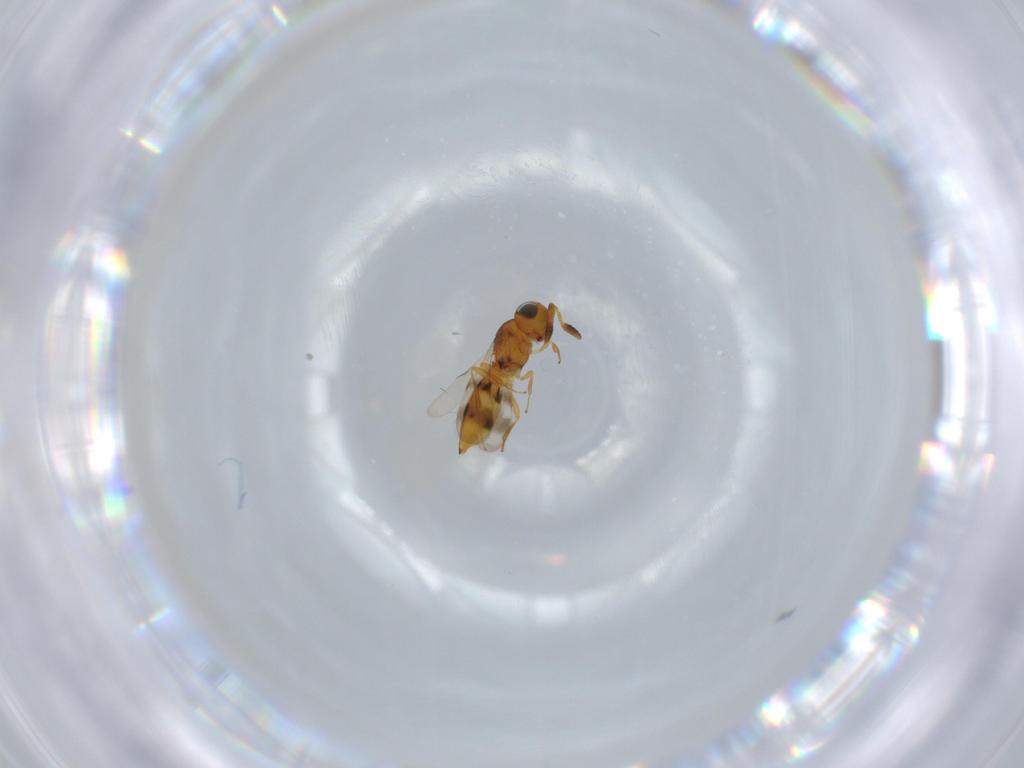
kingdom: Animalia
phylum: Arthropoda
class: Insecta
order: Hymenoptera
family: Scelionidae
